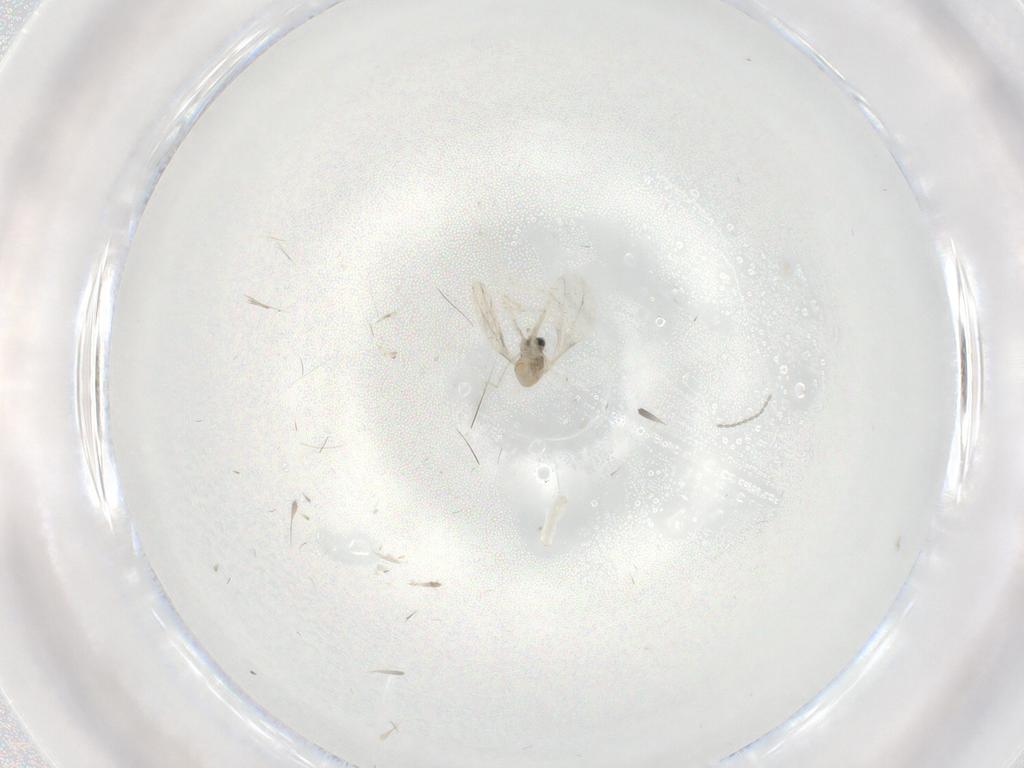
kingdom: Animalia
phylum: Arthropoda
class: Insecta
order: Diptera
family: Cecidomyiidae
